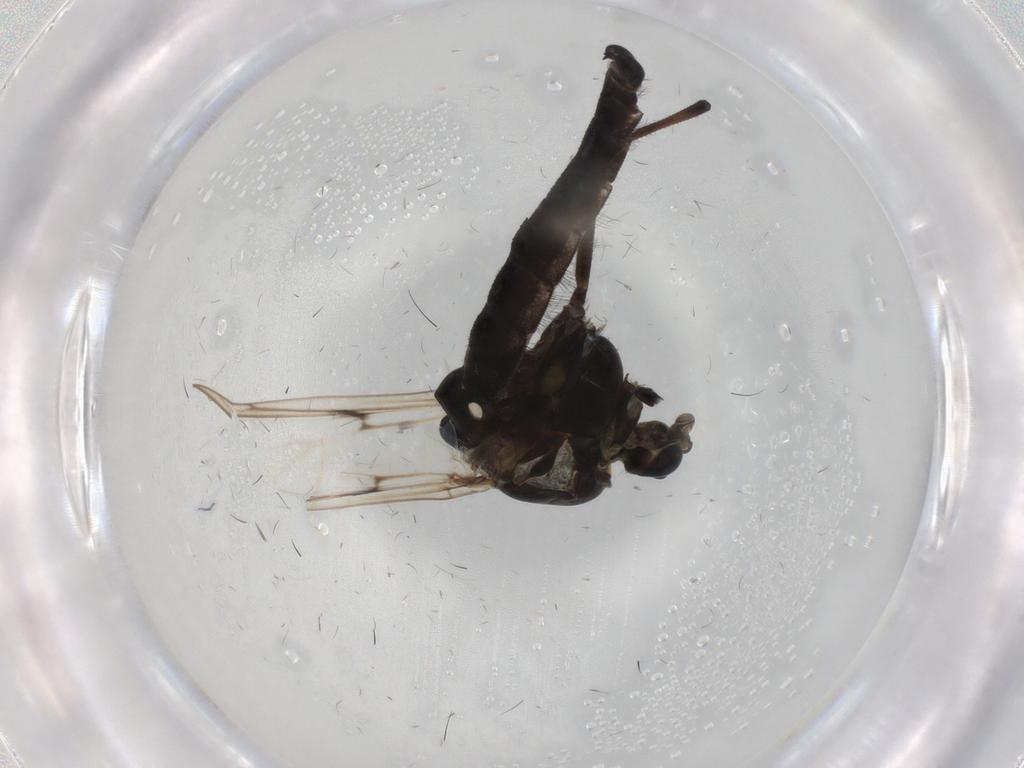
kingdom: Animalia
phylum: Arthropoda
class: Insecta
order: Diptera
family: Chironomidae
